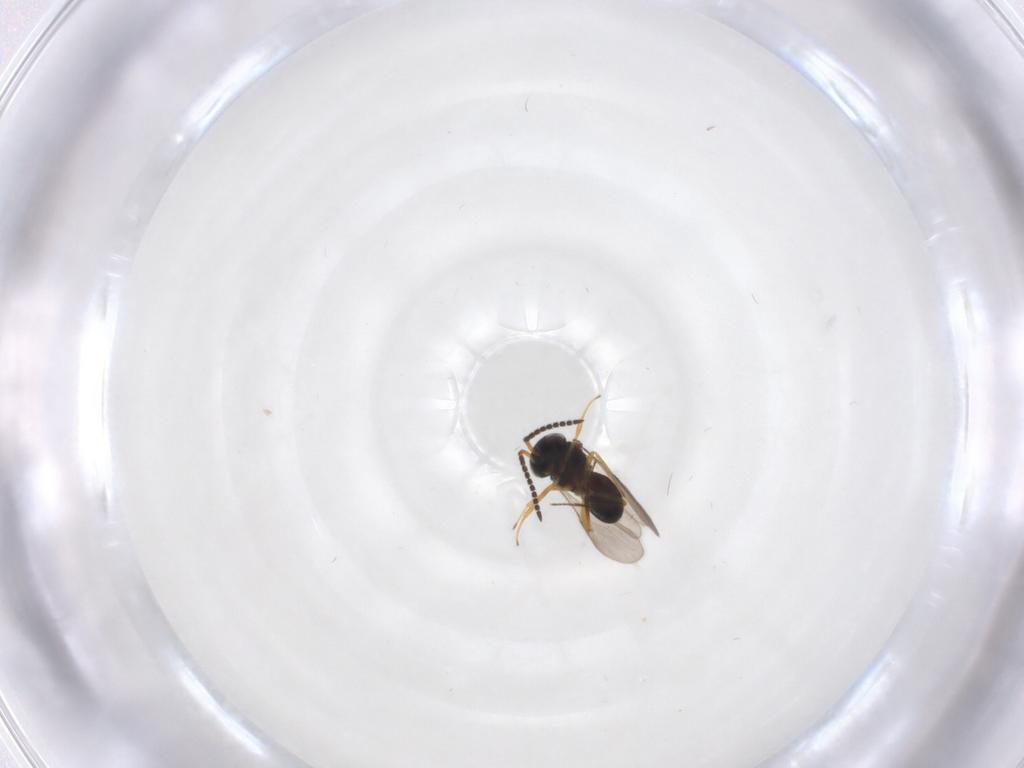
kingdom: Animalia
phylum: Arthropoda
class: Insecta
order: Hymenoptera
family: Scelionidae
